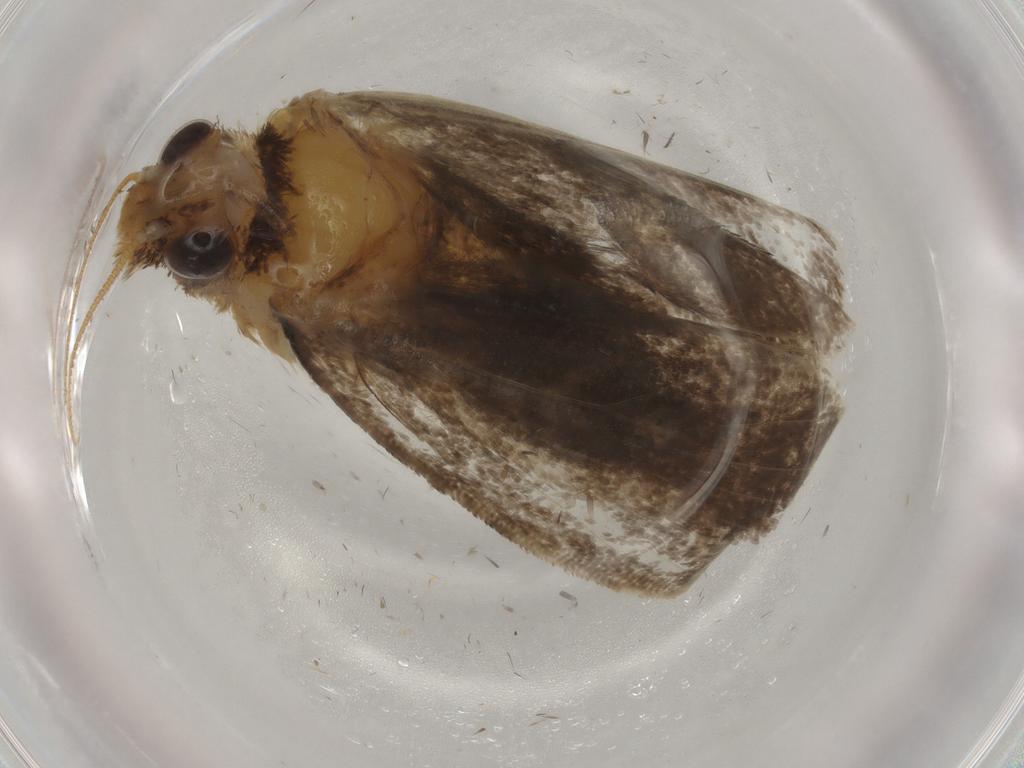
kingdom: Animalia
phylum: Arthropoda
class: Insecta
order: Lepidoptera
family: Tineidae
